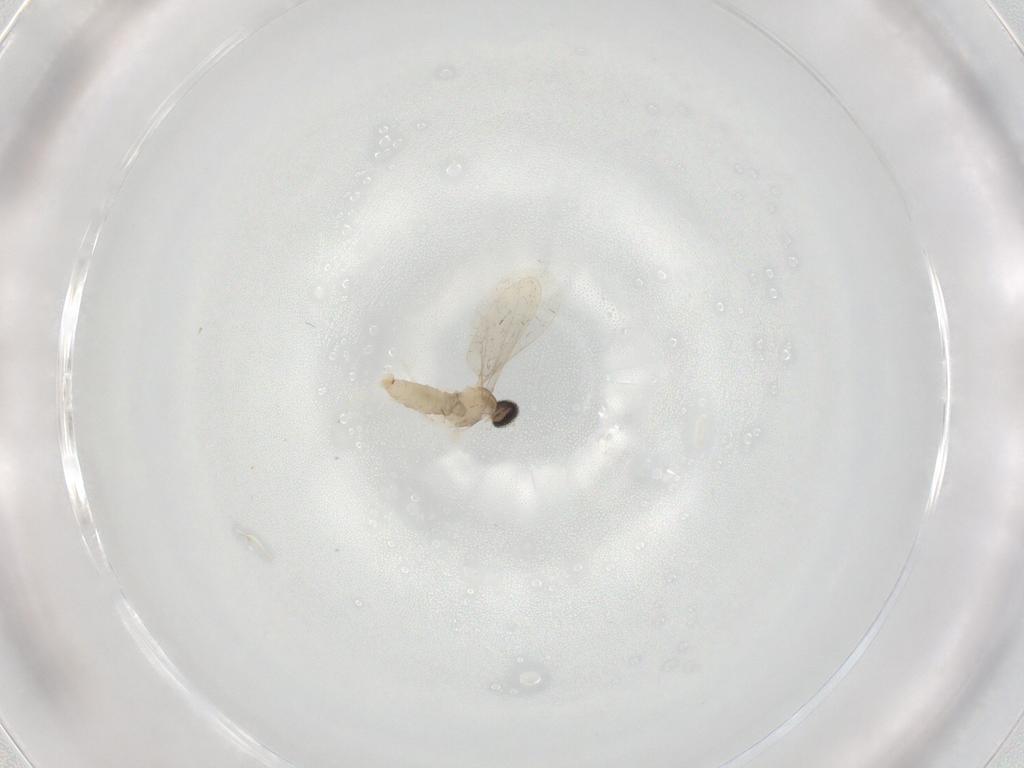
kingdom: Animalia
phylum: Arthropoda
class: Insecta
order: Diptera
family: Cecidomyiidae
